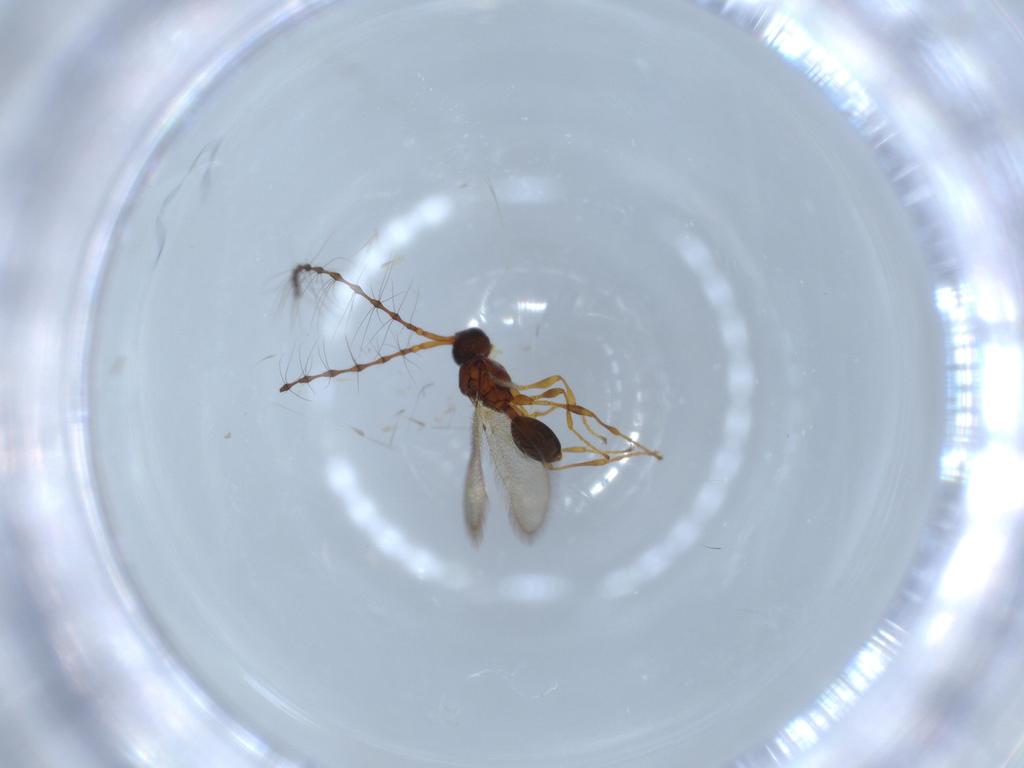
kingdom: Animalia
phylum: Arthropoda
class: Insecta
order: Hymenoptera
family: Diapriidae
